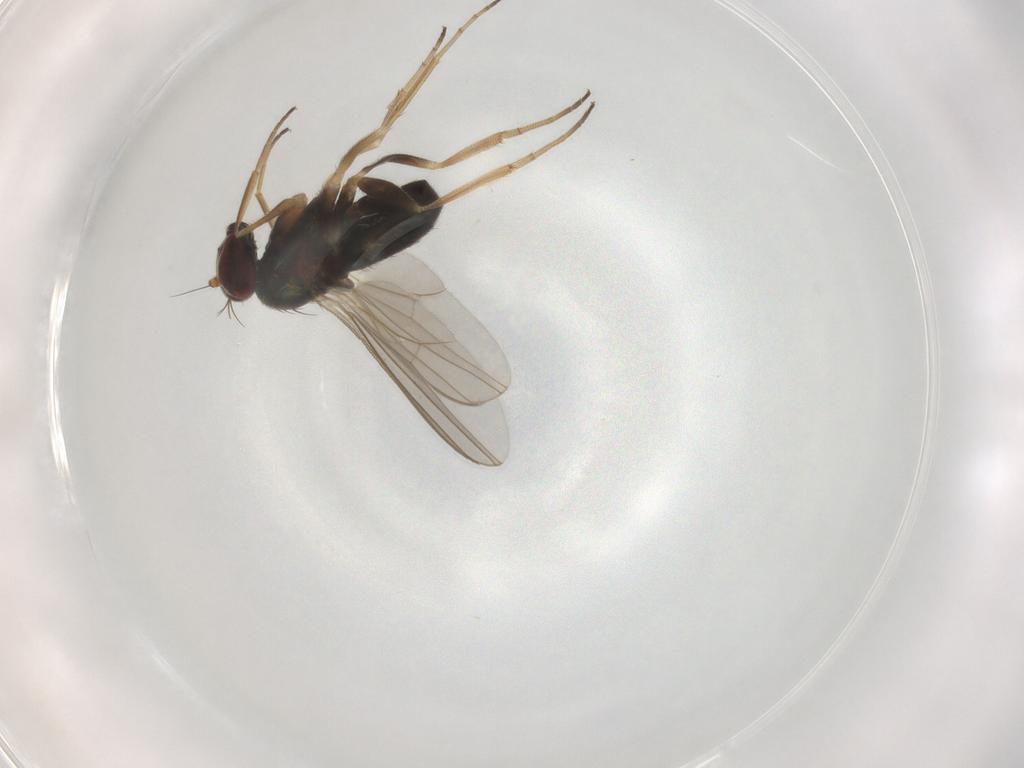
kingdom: Animalia
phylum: Arthropoda
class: Insecta
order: Diptera
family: Dolichopodidae
